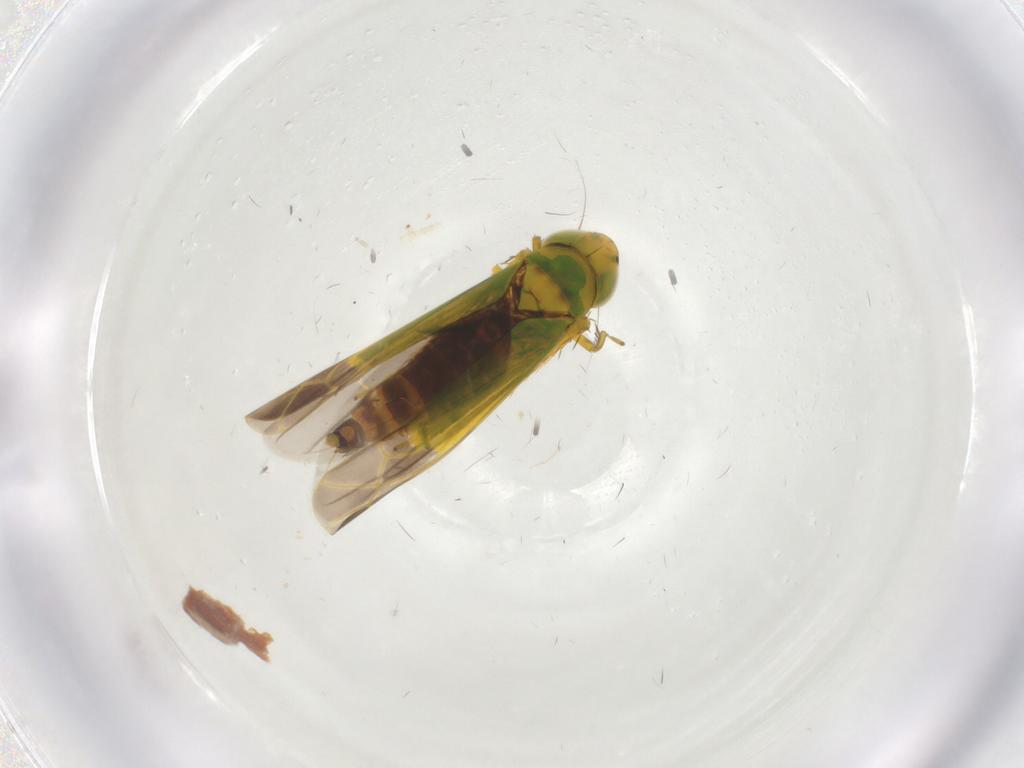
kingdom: Animalia
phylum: Arthropoda
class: Insecta
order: Hemiptera
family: Cicadellidae
